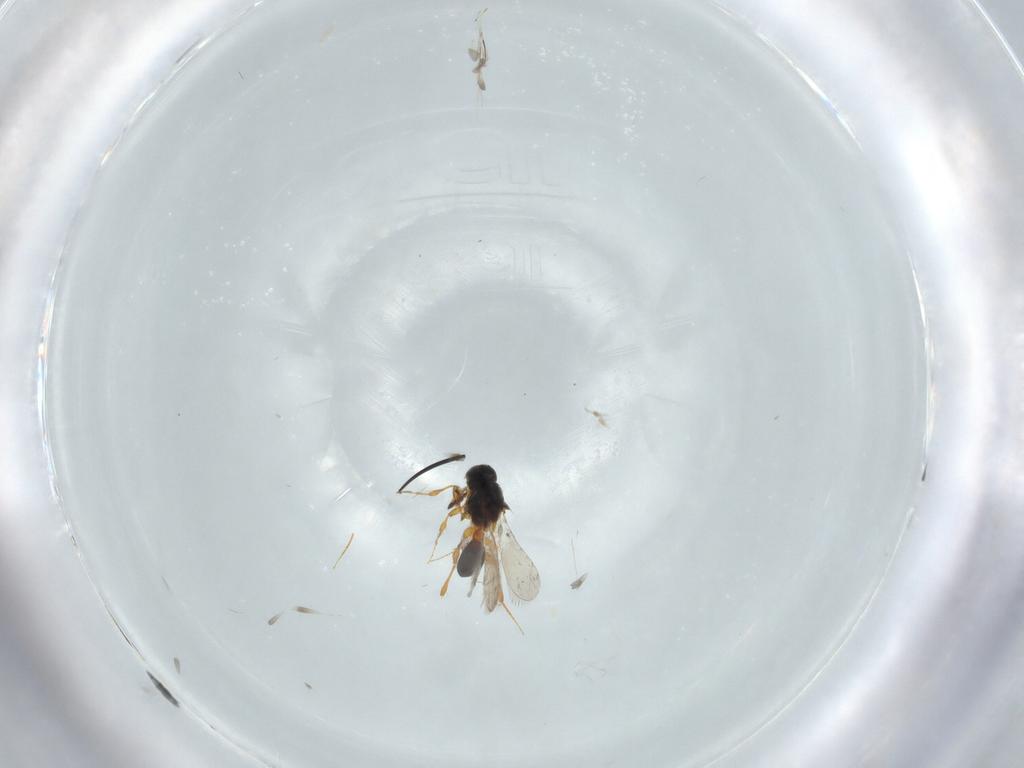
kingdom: Animalia
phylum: Arthropoda
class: Insecta
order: Hymenoptera
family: Platygastridae
